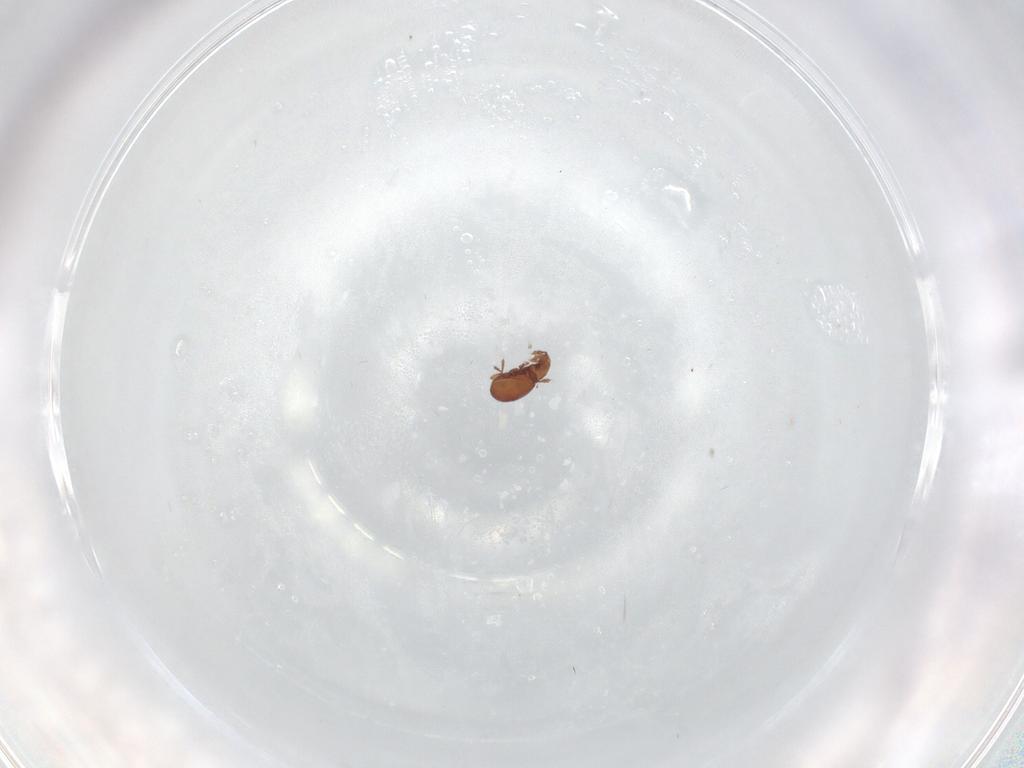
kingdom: Animalia
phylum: Arthropoda
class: Arachnida
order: Sarcoptiformes
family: Eremaeidae
